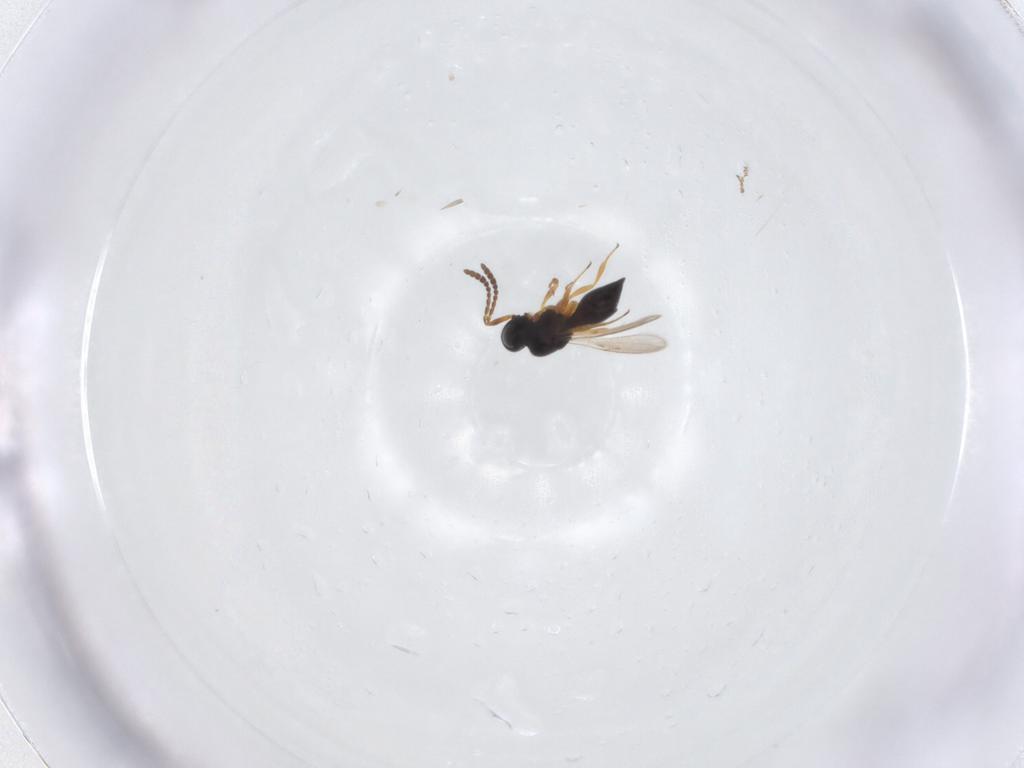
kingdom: Animalia
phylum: Arthropoda
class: Insecta
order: Hymenoptera
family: Scelionidae
